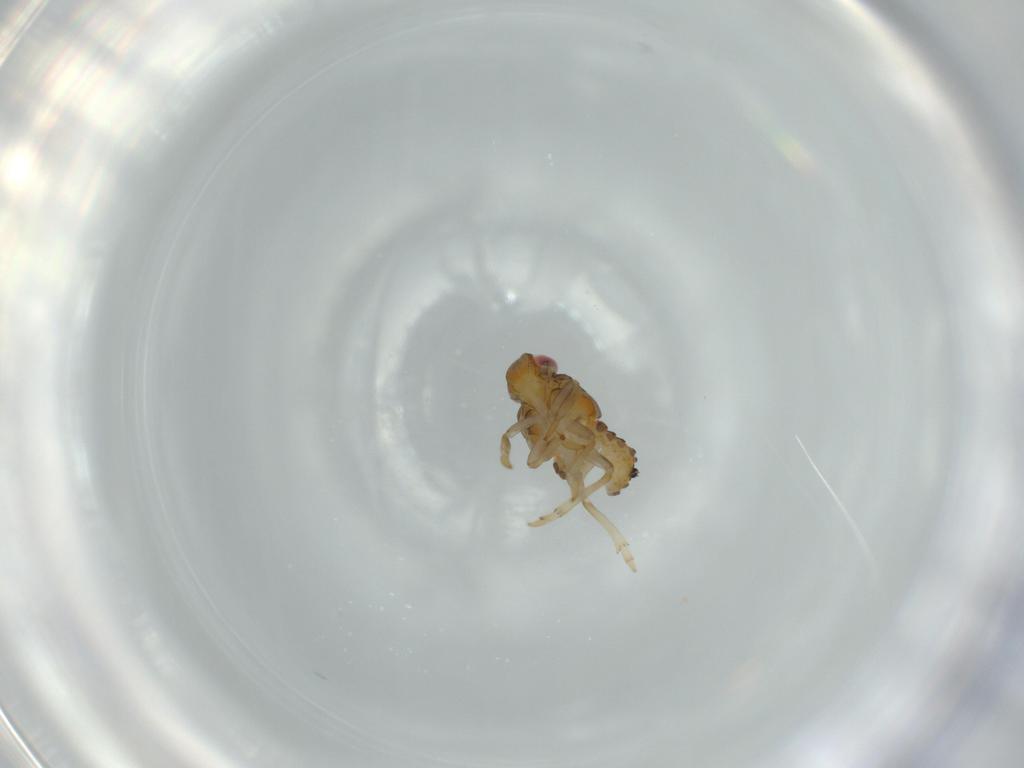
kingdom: Animalia
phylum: Arthropoda
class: Insecta
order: Hemiptera
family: Issidae
